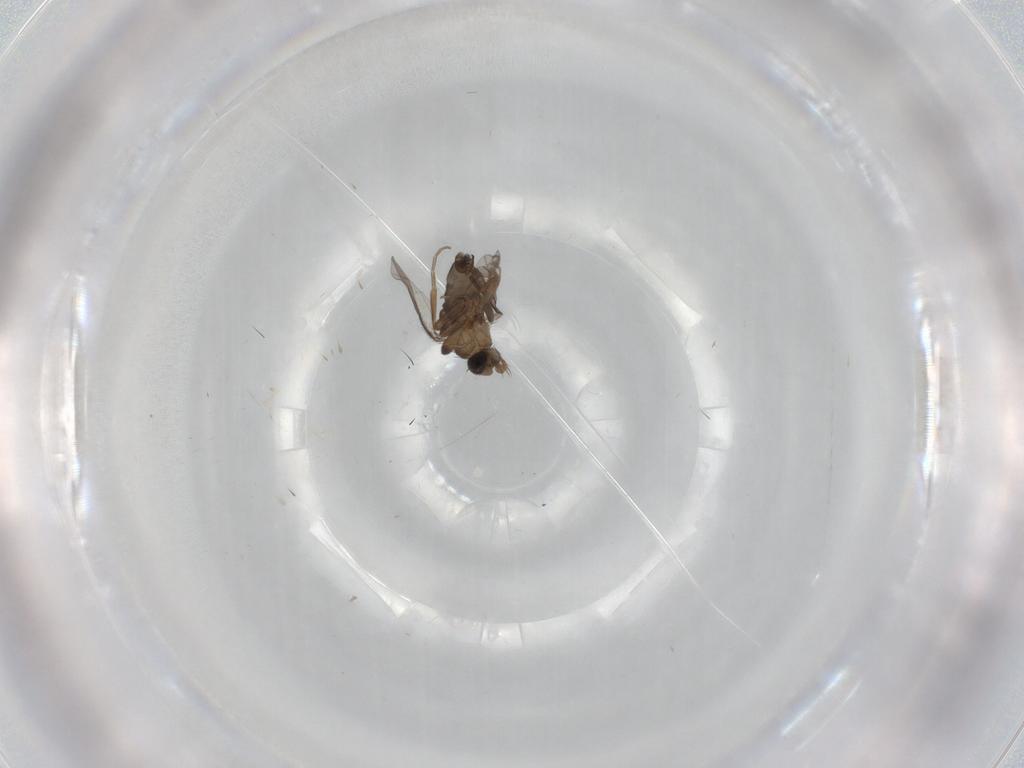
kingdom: Animalia
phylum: Arthropoda
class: Insecta
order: Diptera
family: Phoridae
